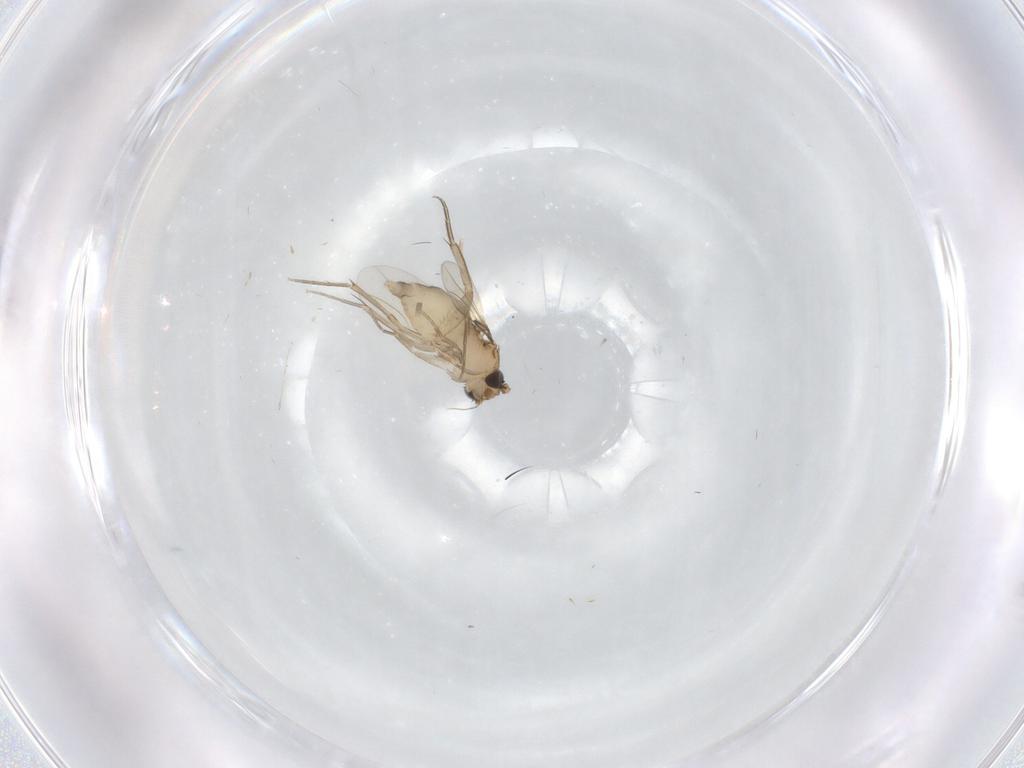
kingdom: Animalia
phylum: Arthropoda
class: Insecta
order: Diptera
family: Phoridae
